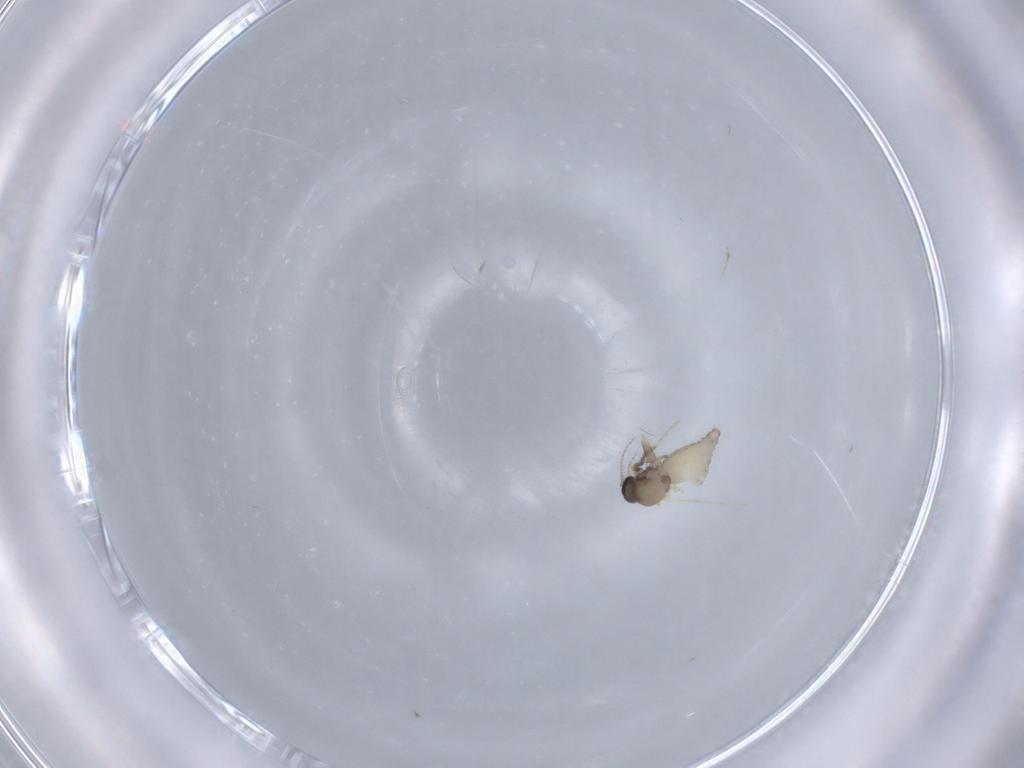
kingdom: Animalia
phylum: Arthropoda
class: Insecta
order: Diptera
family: Ceratopogonidae
